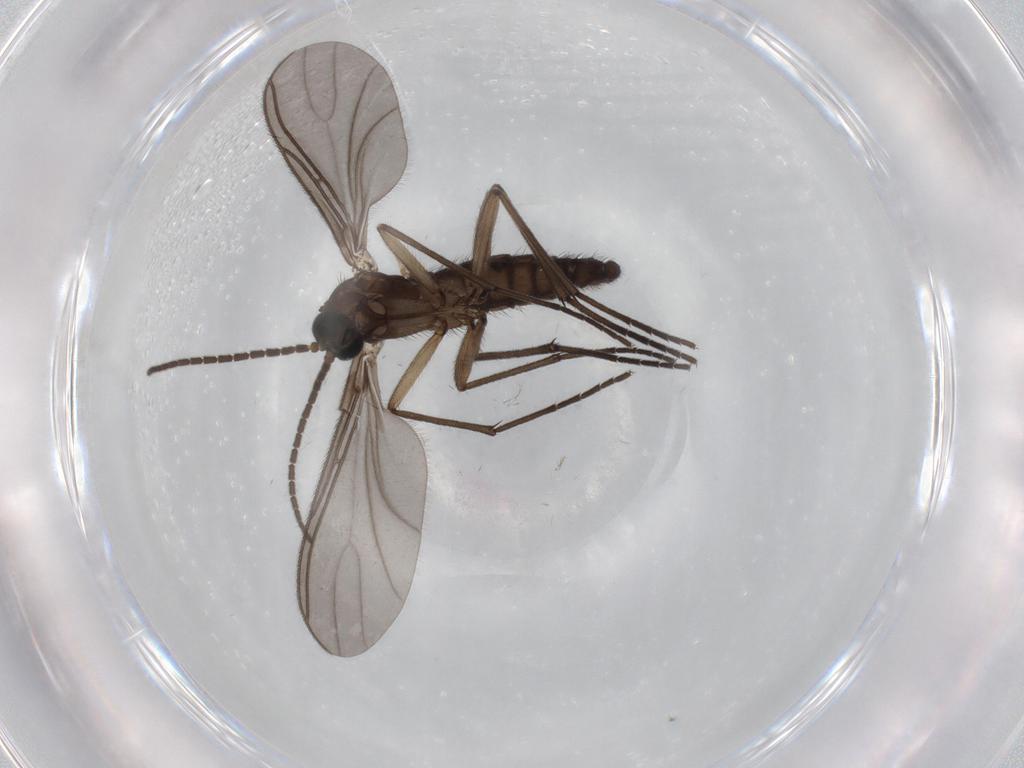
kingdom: Animalia
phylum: Arthropoda
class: Insecta
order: Diptera
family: Sciaridae
